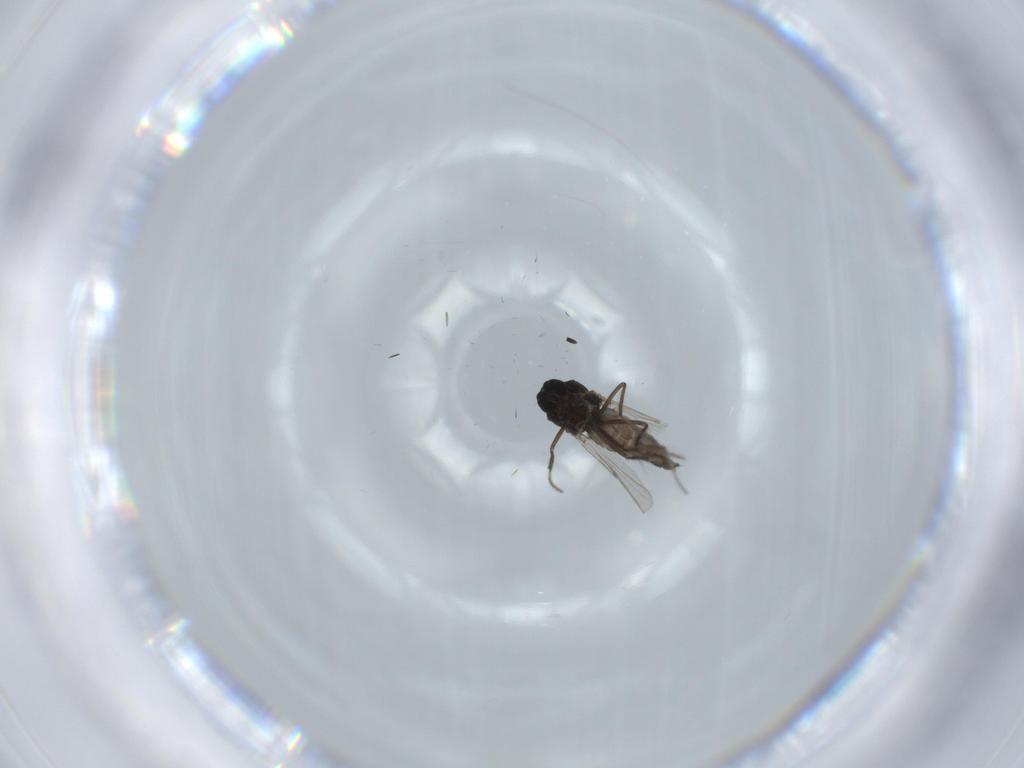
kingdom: Animalia
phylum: Arthropoda
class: Insecta
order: Diptera
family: Ceratopogonidae
